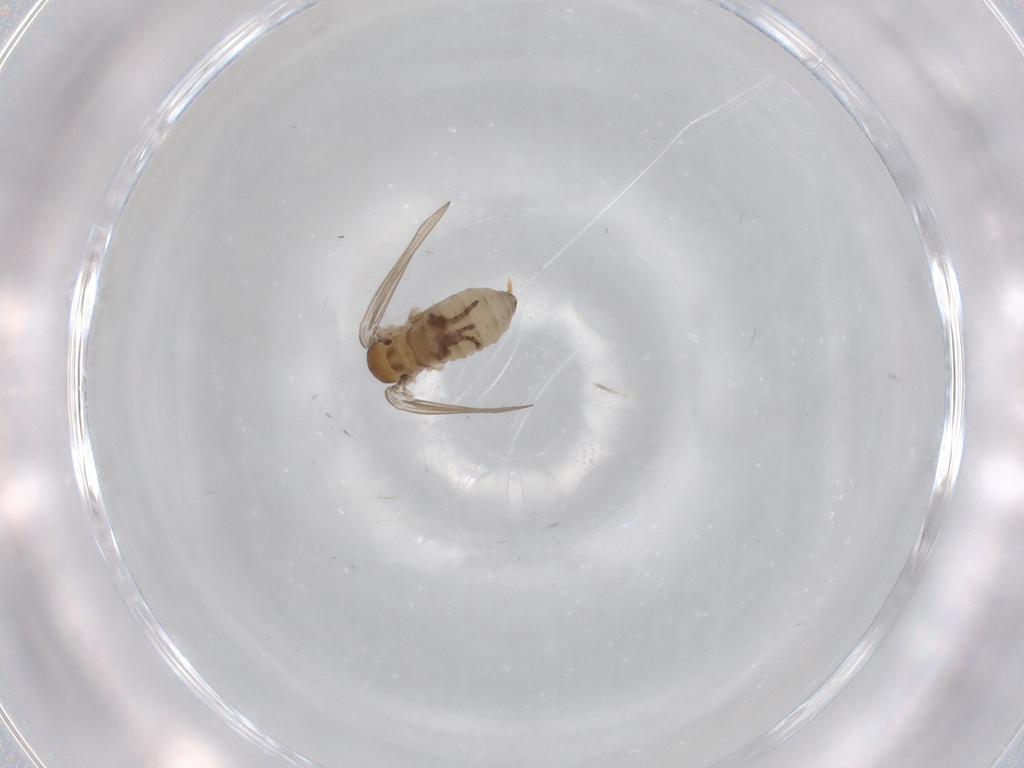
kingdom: Animalia
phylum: Arthropoda
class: Insecta
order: Diptera
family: Psychodidae
